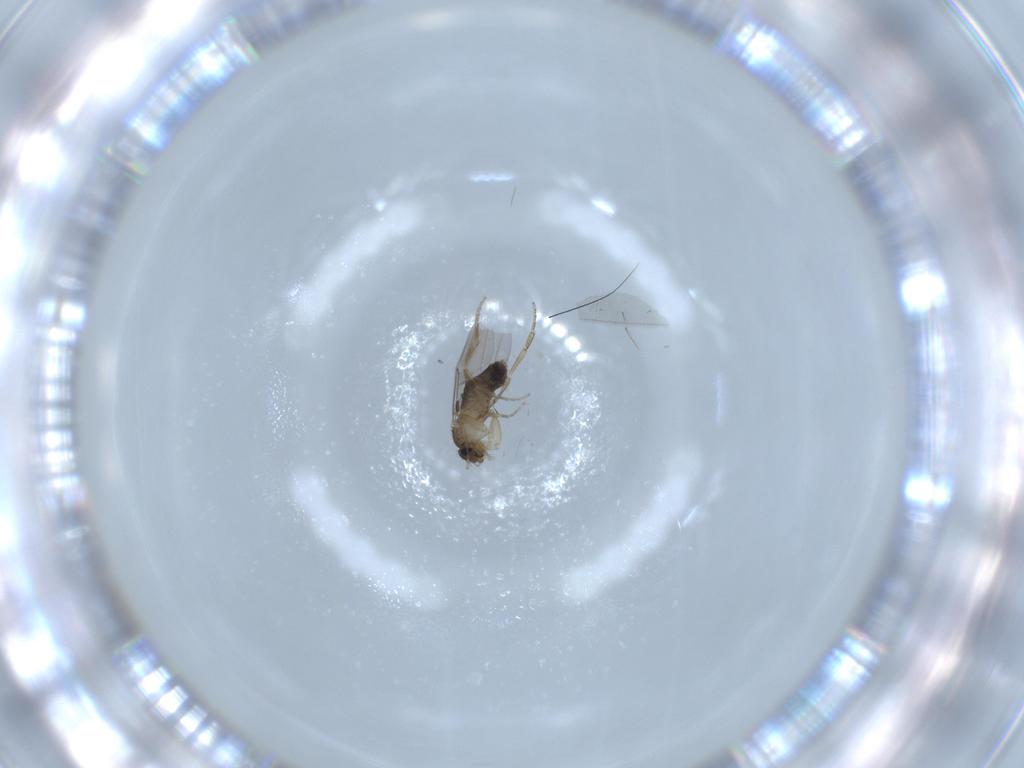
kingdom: Animalia
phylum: Arthropoda
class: Insecta
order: Diptera
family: Phoridae
